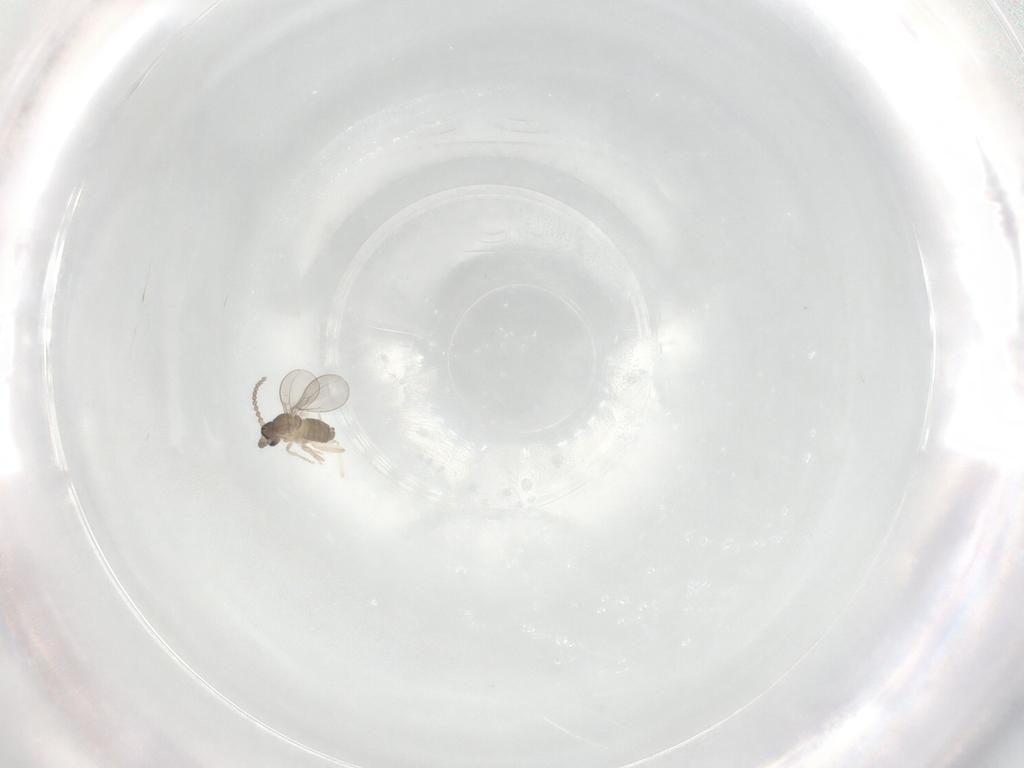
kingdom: Animalia
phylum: Arthropoda
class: Insecta
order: Diptera
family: Cecidomyiidae
